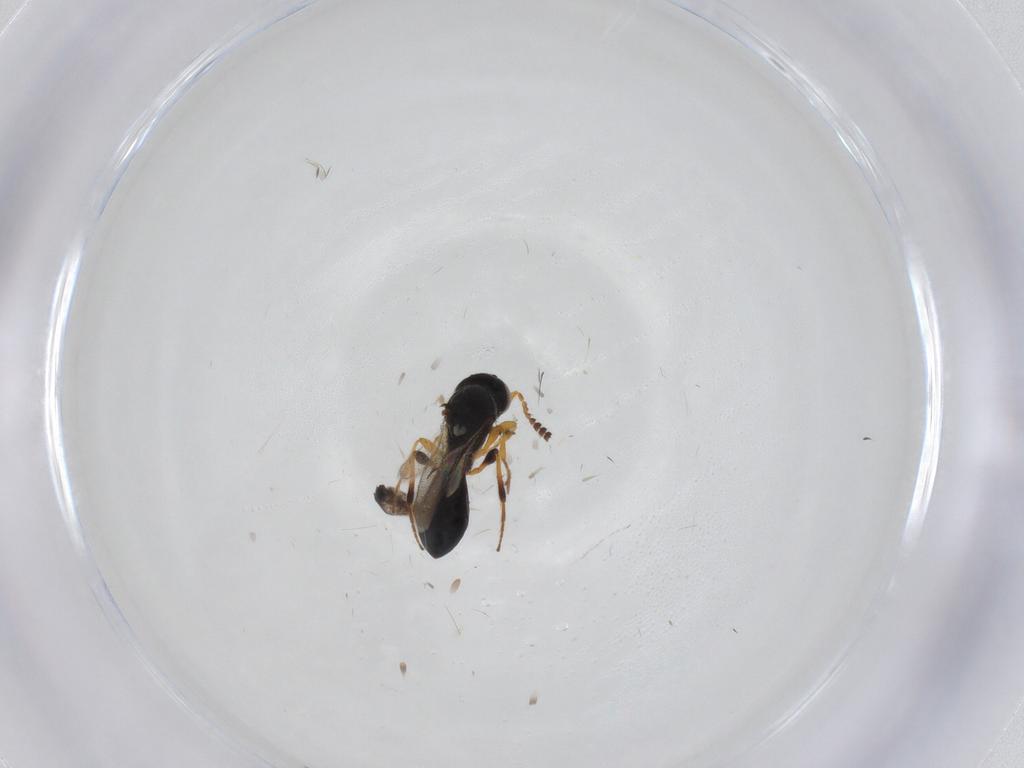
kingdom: Animalia
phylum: Arthropoda
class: Insecta
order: Hymenoptera
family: Platygastridae
